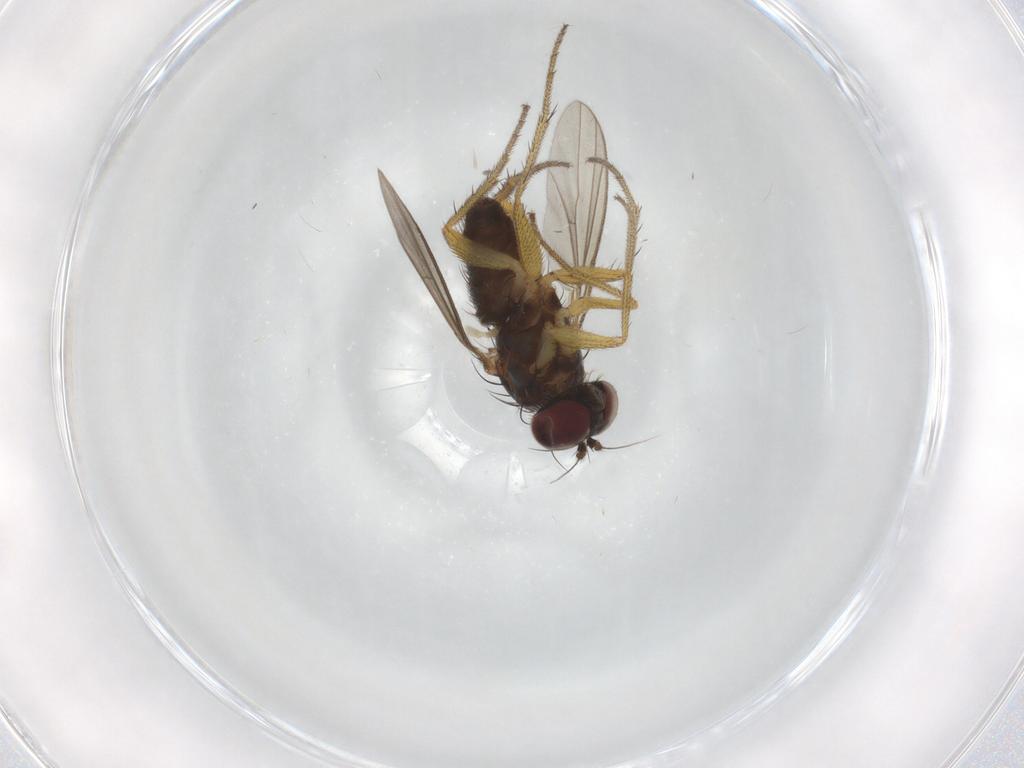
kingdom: Animalia
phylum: Arthropoda
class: Insecta
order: Diptera
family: Dolichopodidae
